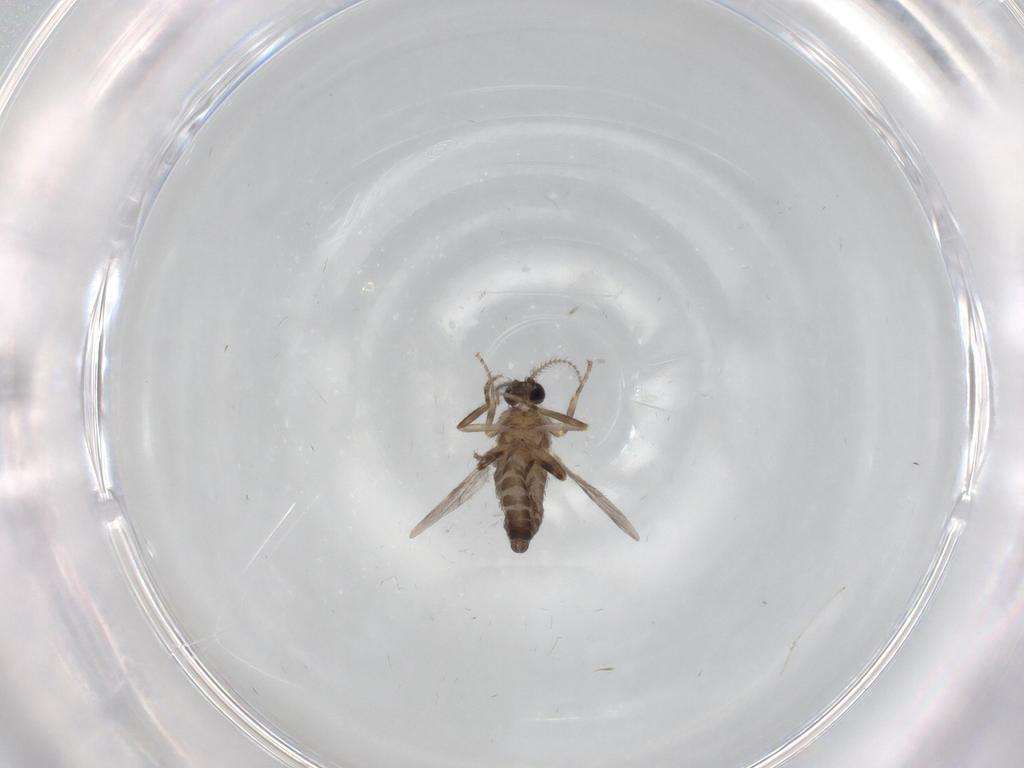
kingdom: Animalia
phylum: Arthropoda
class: Insecta
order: Diptera
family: Ceratopogonidae
